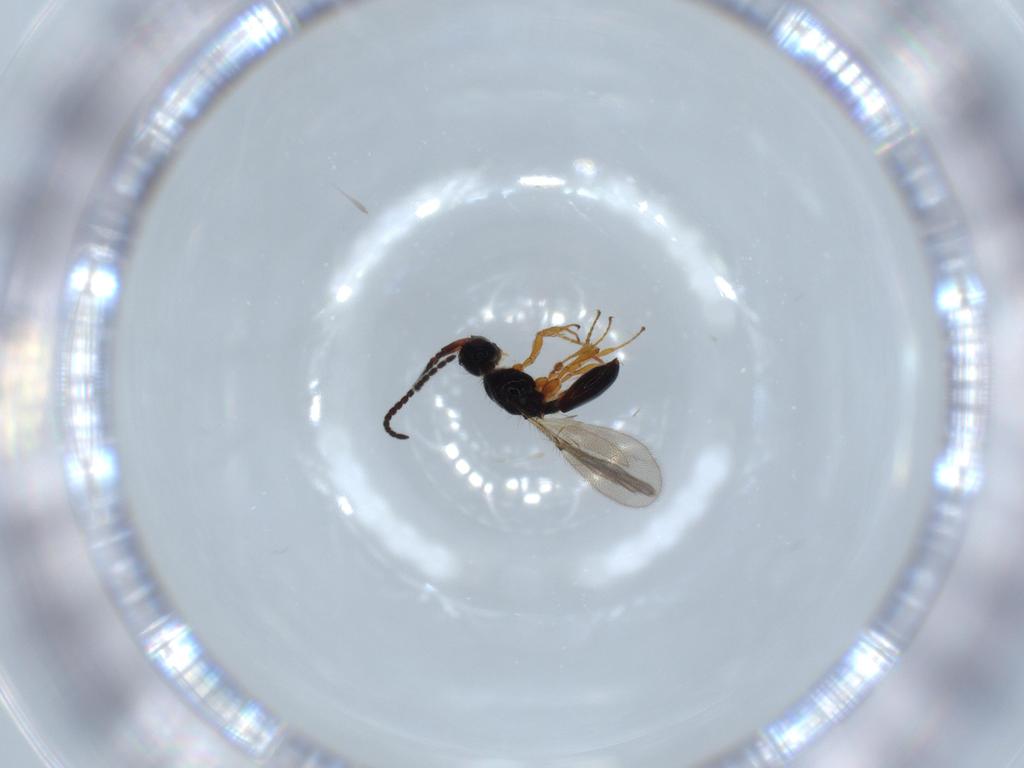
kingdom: Animalia
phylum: Arthropoda
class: Insecta
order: Hymenoptera
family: Diapriidae
